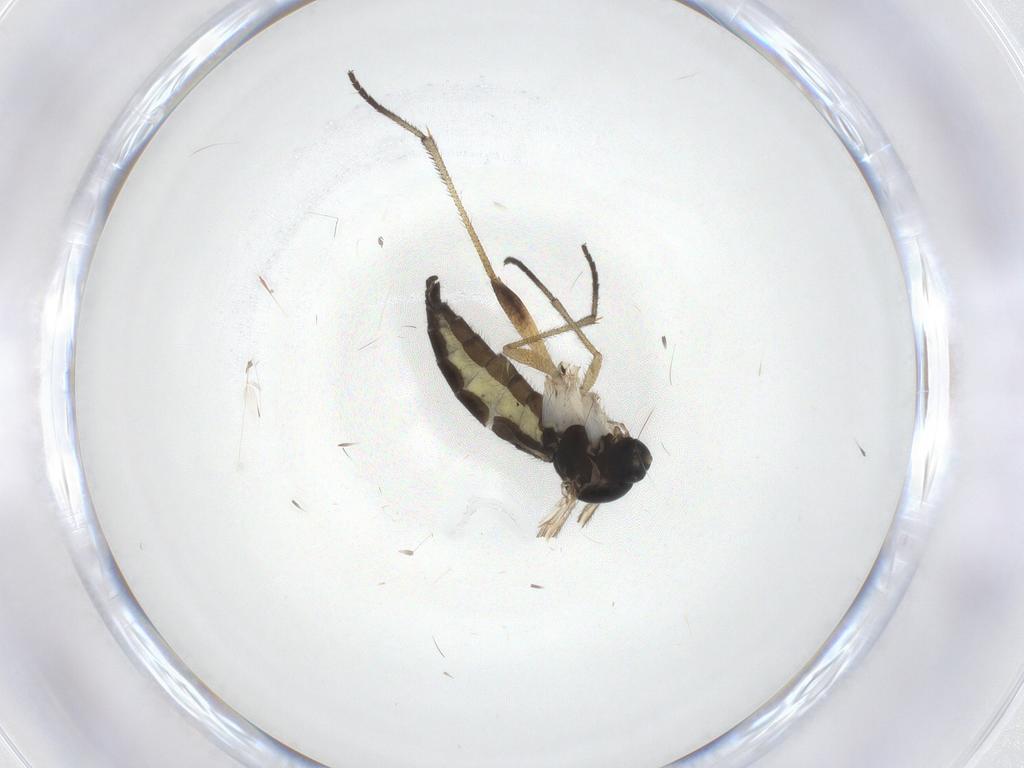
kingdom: Animalia
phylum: Arthropoda
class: Insecta
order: Diptera
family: Sciaridae
